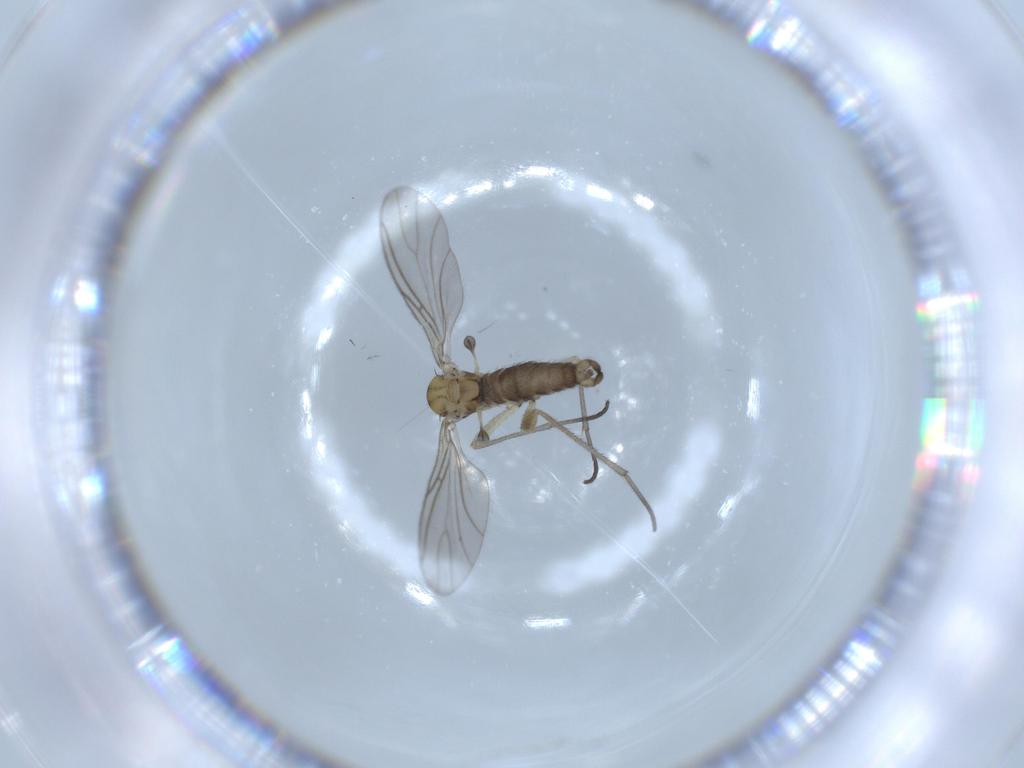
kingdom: Animalia
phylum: Arthropoda
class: Insecta
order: Diptera
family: Sciaridae
